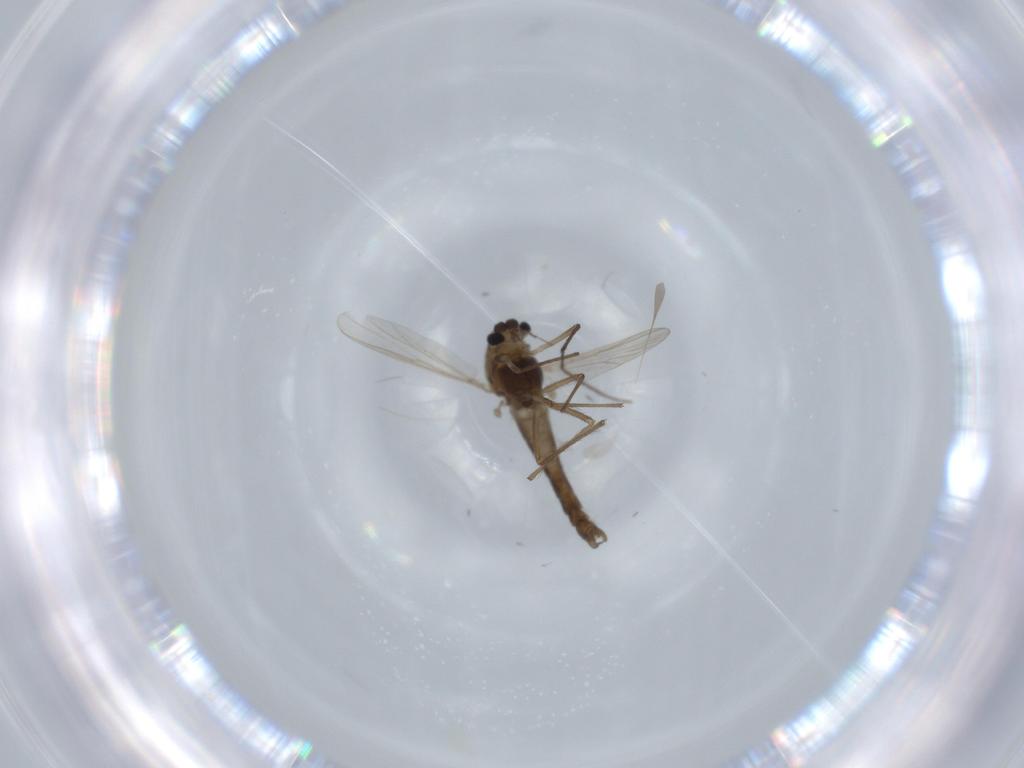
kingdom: Animalia
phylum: Arthropoda
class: Insecta
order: Diptera
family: Chironomidae
